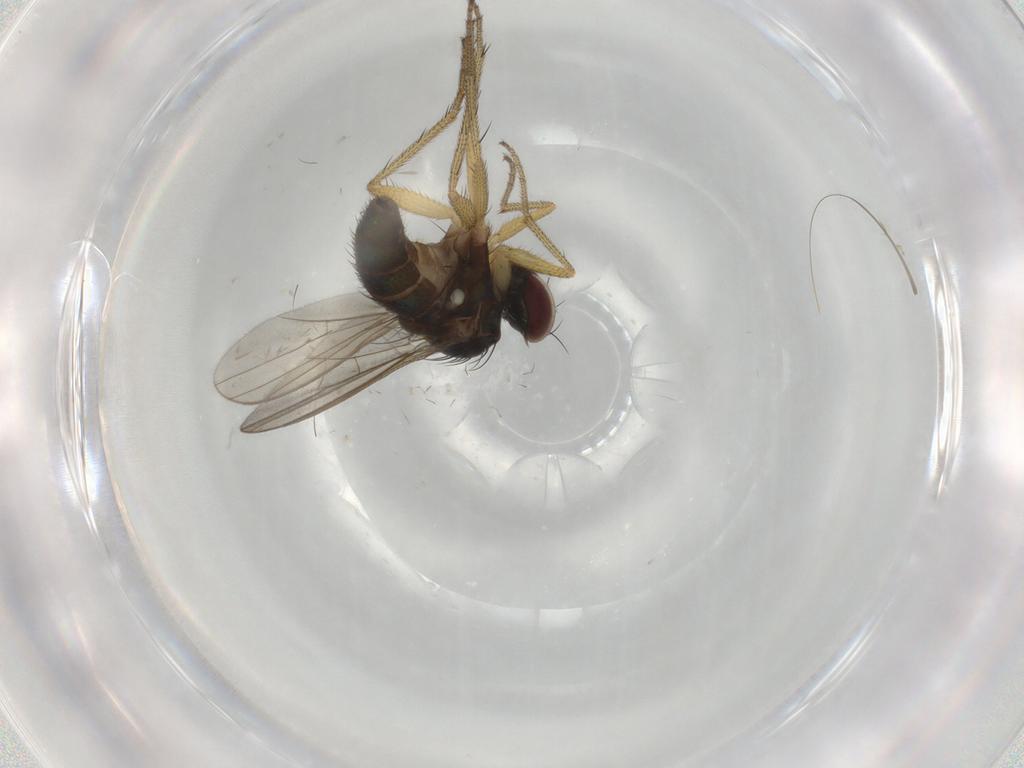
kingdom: Animalia
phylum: Arthropoda
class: Insecta
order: Diptera
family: Dolichopodidae
